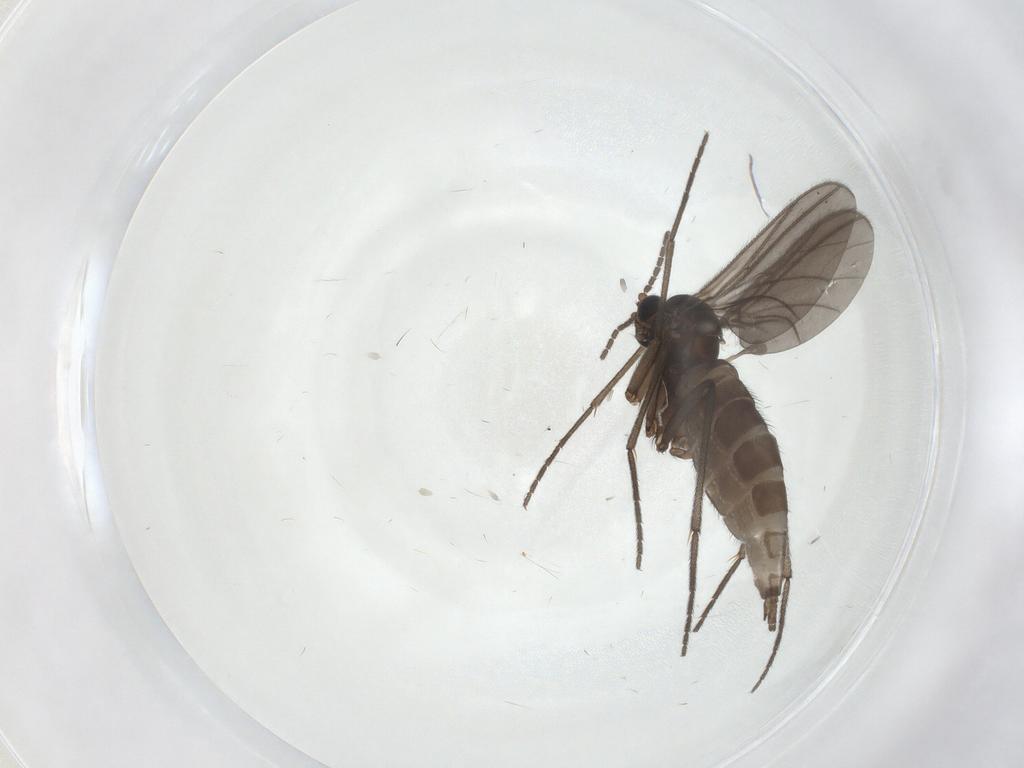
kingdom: Animalia
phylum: Arthropoda
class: Insecta
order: Diptera
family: Sciaridae
